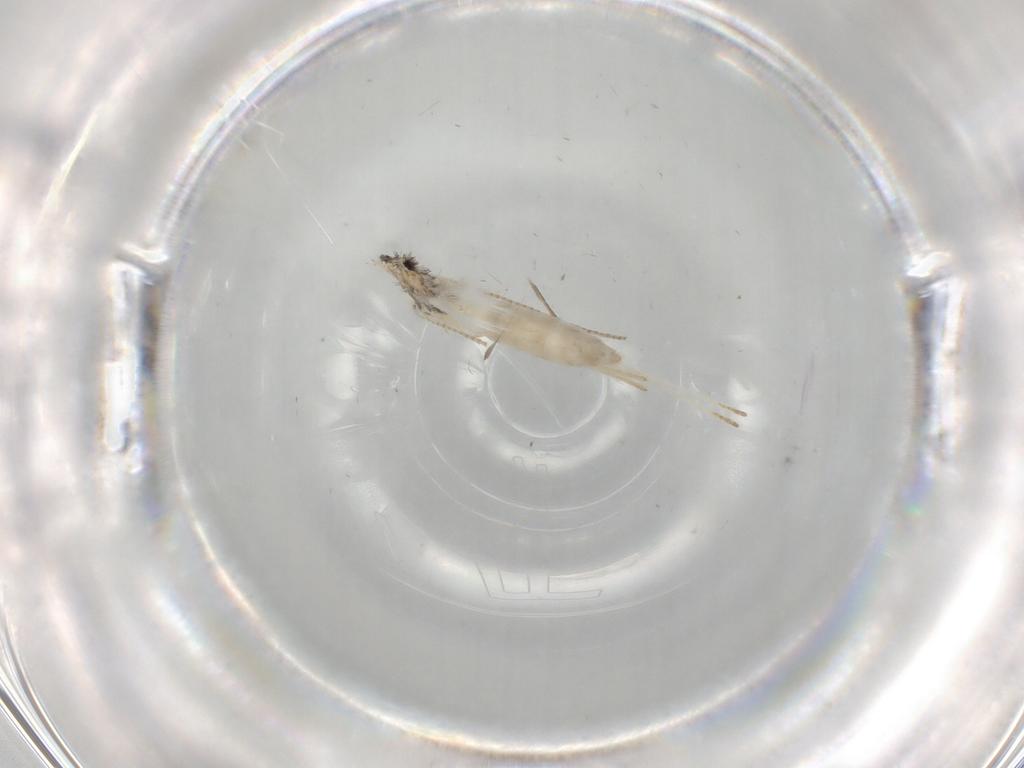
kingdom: Animalia
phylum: Arthropoda
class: Insecta
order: Lepidoptera
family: Nepticulidae
